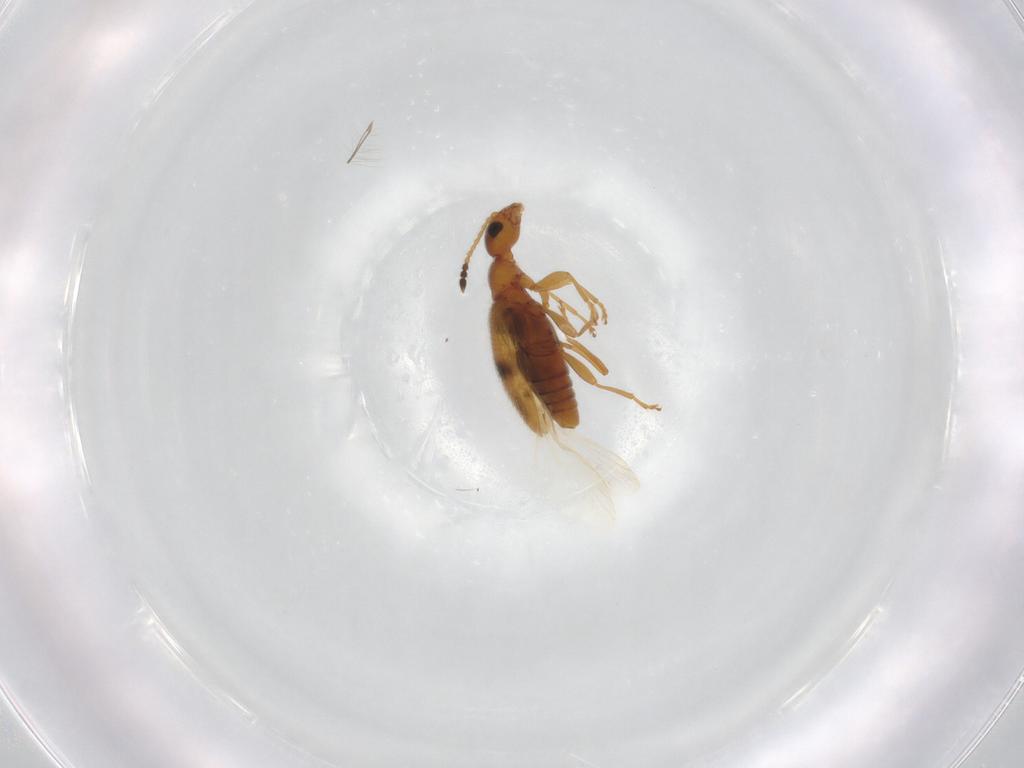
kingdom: Animalia
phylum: Arthropoda
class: Insecta
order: Coleoptera
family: Anthicidae
